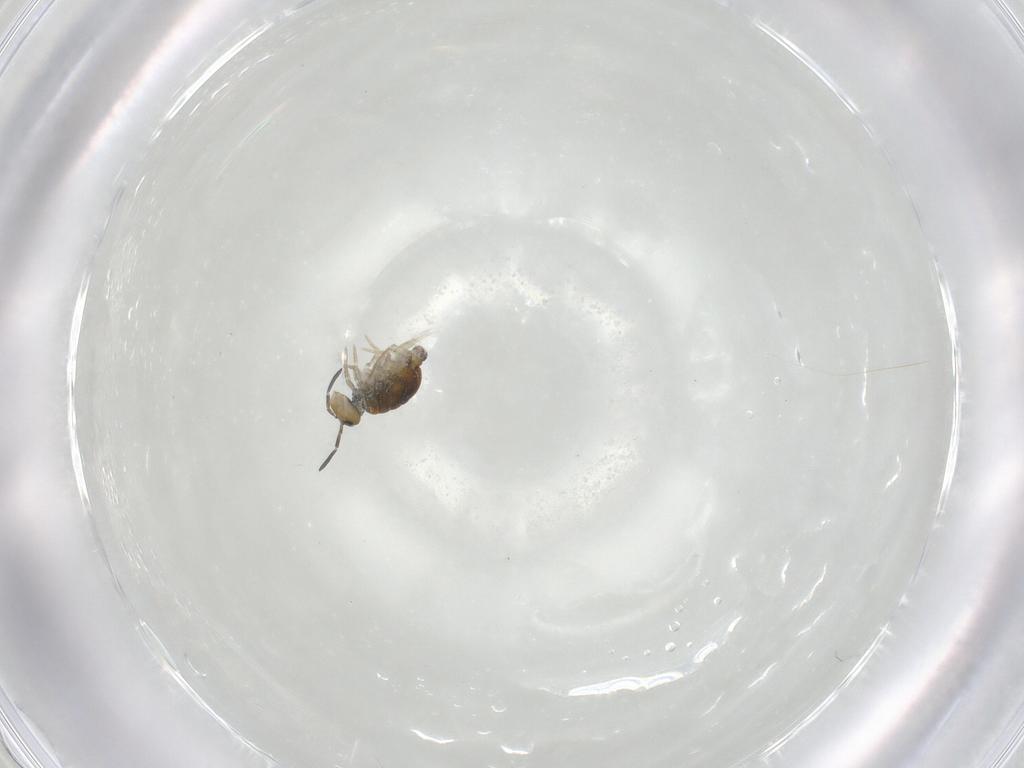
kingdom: Animalia
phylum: Arthropoda
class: Collembola
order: Symphypleona
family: Katiannidae
